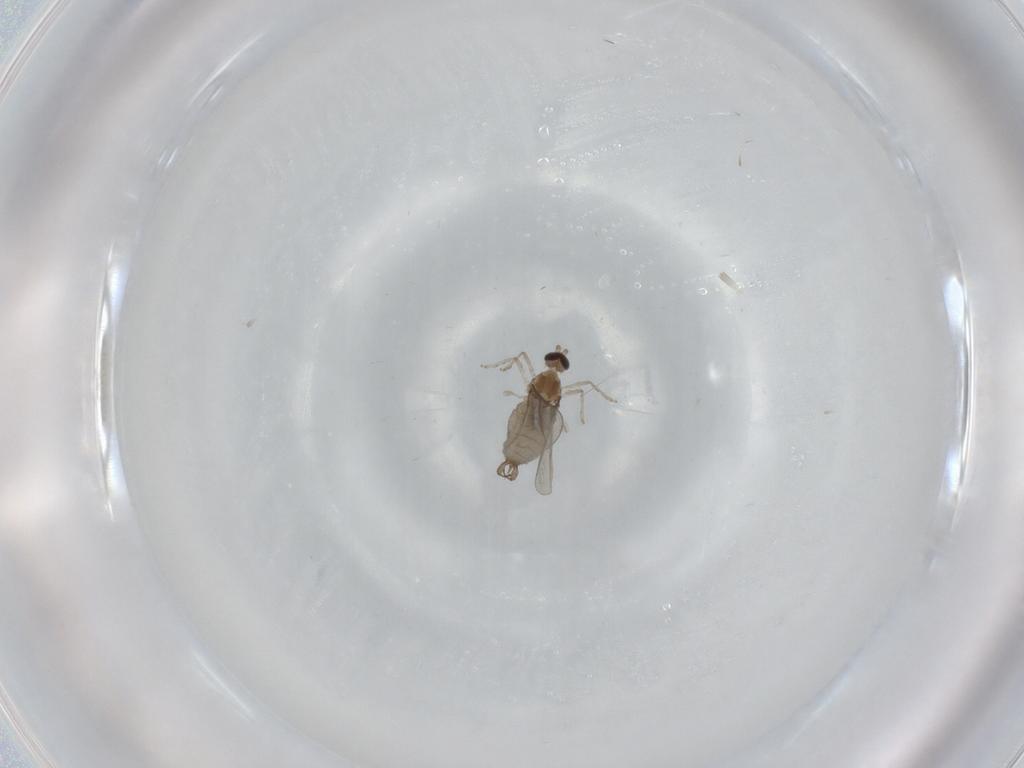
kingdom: Animalia
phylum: Arthropoda
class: Insecta
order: Diptera
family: Cecidomyiidae
